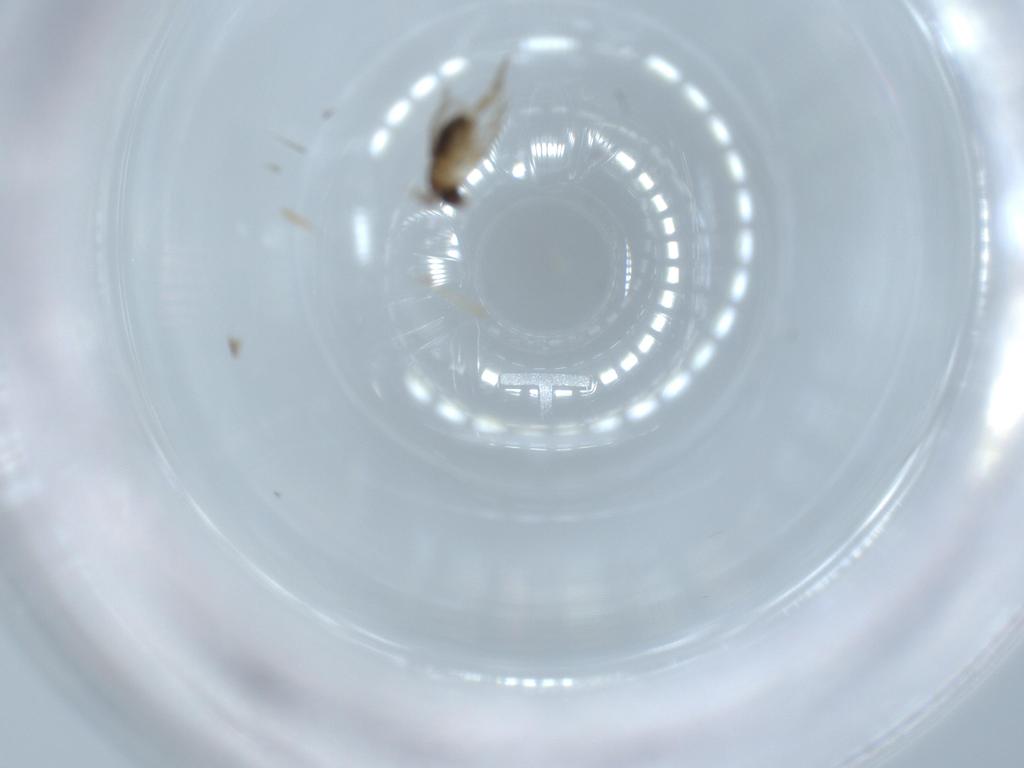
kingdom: Animalia
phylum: Arthropoda
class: Insecta
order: Diptera
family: Phoridae
